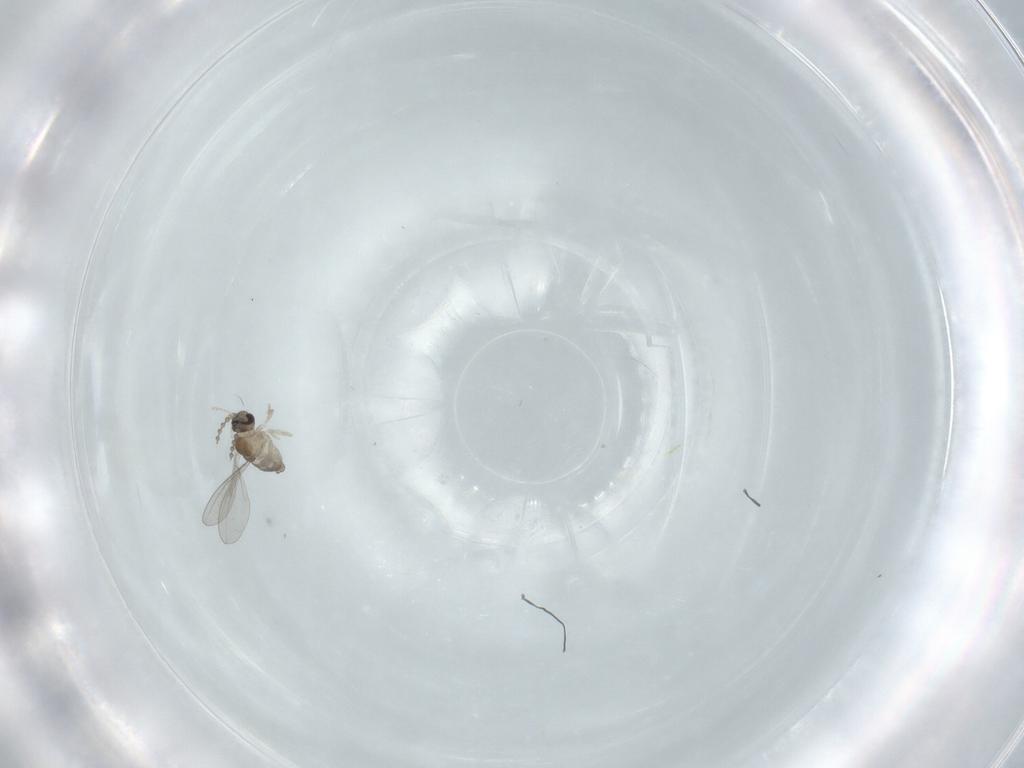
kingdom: Animalia
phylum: Arthropoda
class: Insecta
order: Diptera
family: Cecidomyiidae
